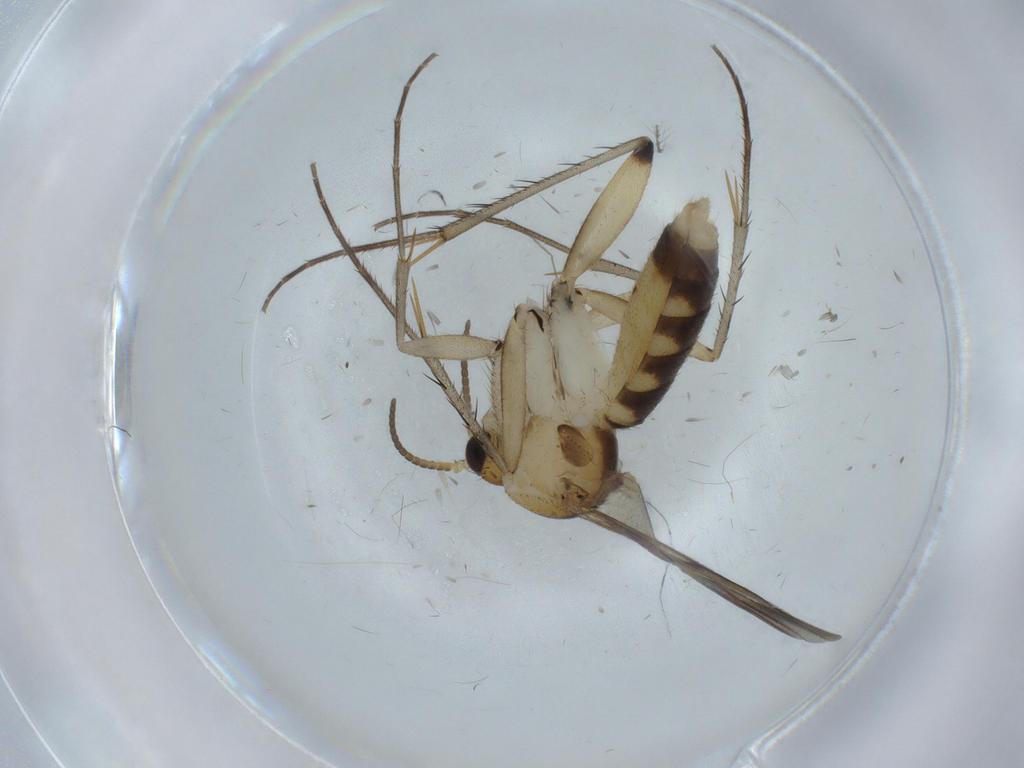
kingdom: Animalia
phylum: Arthropoda
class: Insecta
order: Diptera
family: Mycetophilidae
